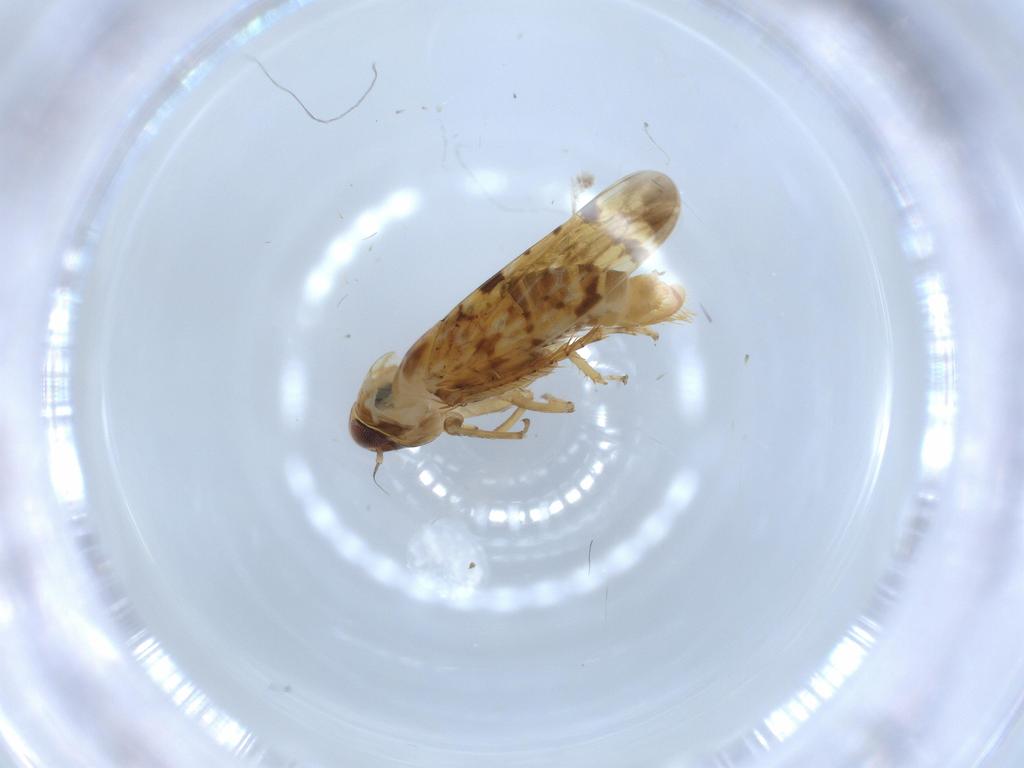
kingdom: Animalia
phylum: Arthropoda
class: Insecta
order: Hemiptera
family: Cicadellidae
